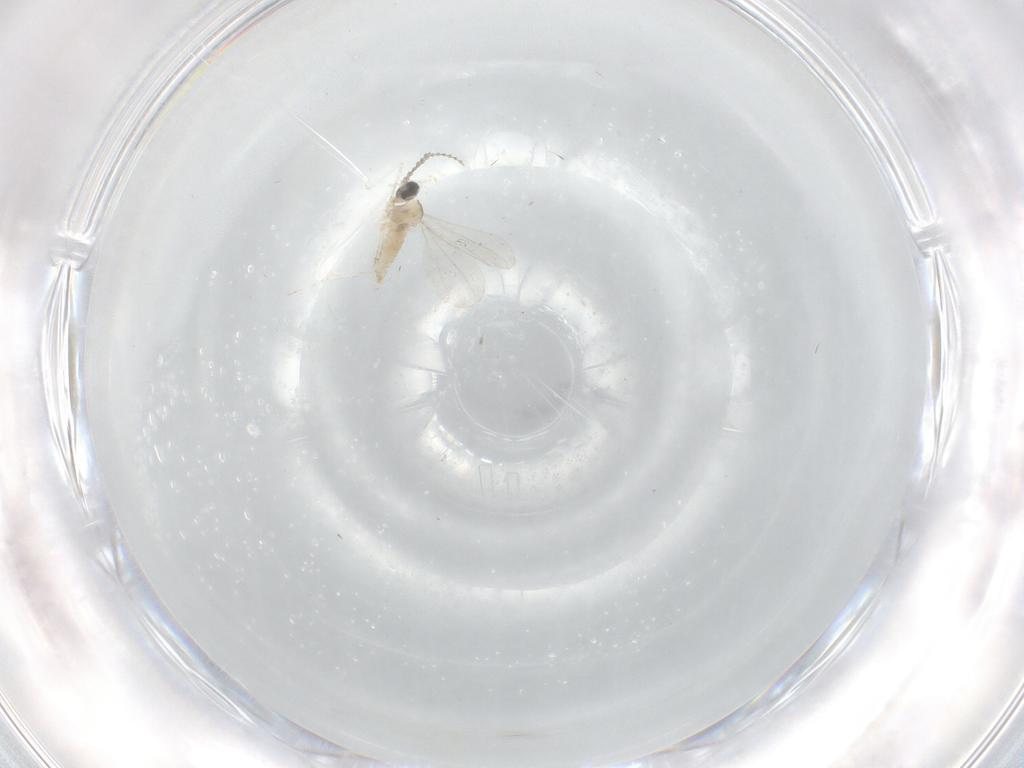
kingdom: Animalia
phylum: Arthropoda
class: Insecta
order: Diptera
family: Cecidomyiidae
